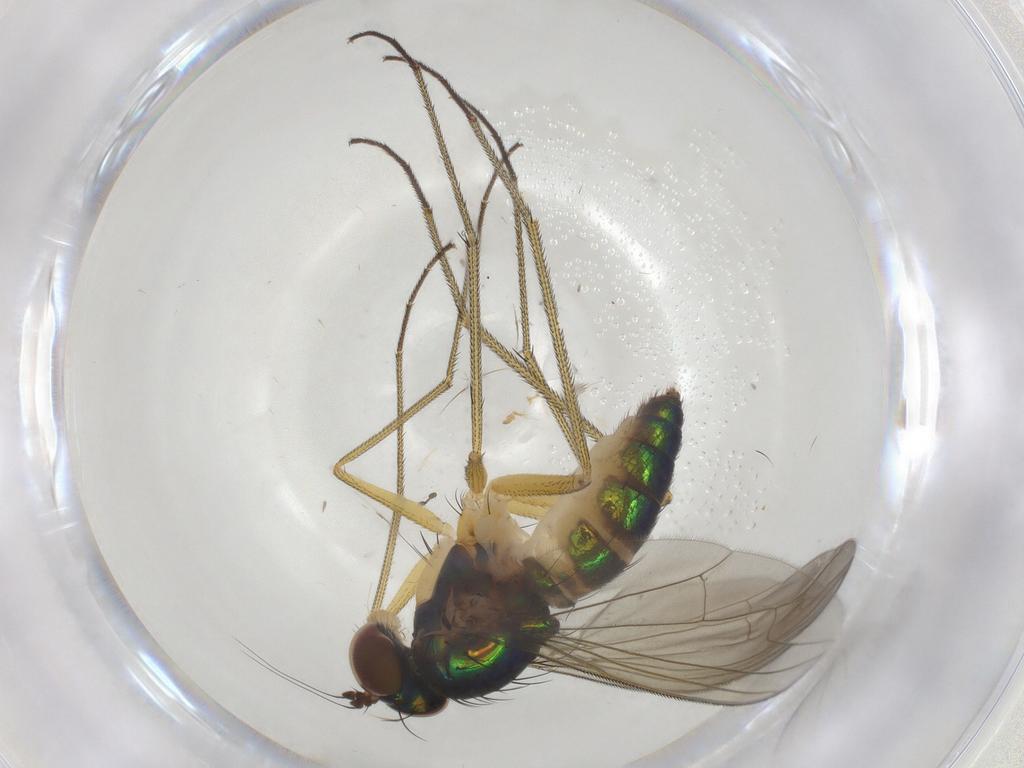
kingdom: Animalia
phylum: Arthropoda
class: Insecta
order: Diptera
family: Dolichopodidae
